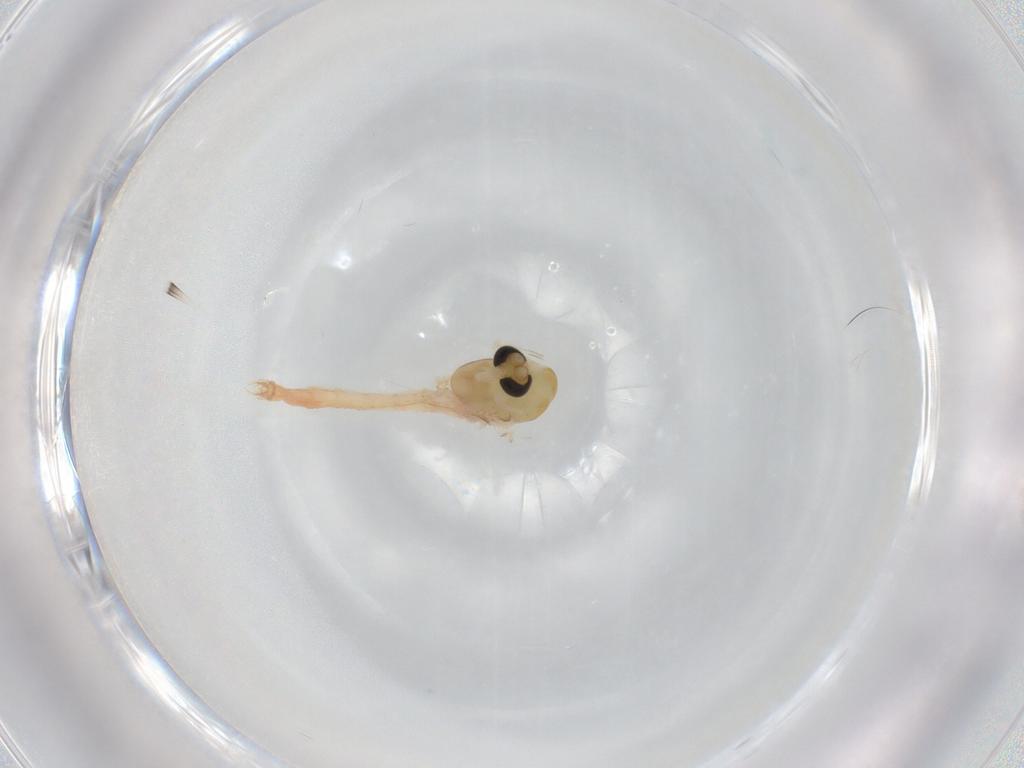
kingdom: Animalia
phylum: Arthropoda
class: Insecta
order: Diptera
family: Chironomidae
